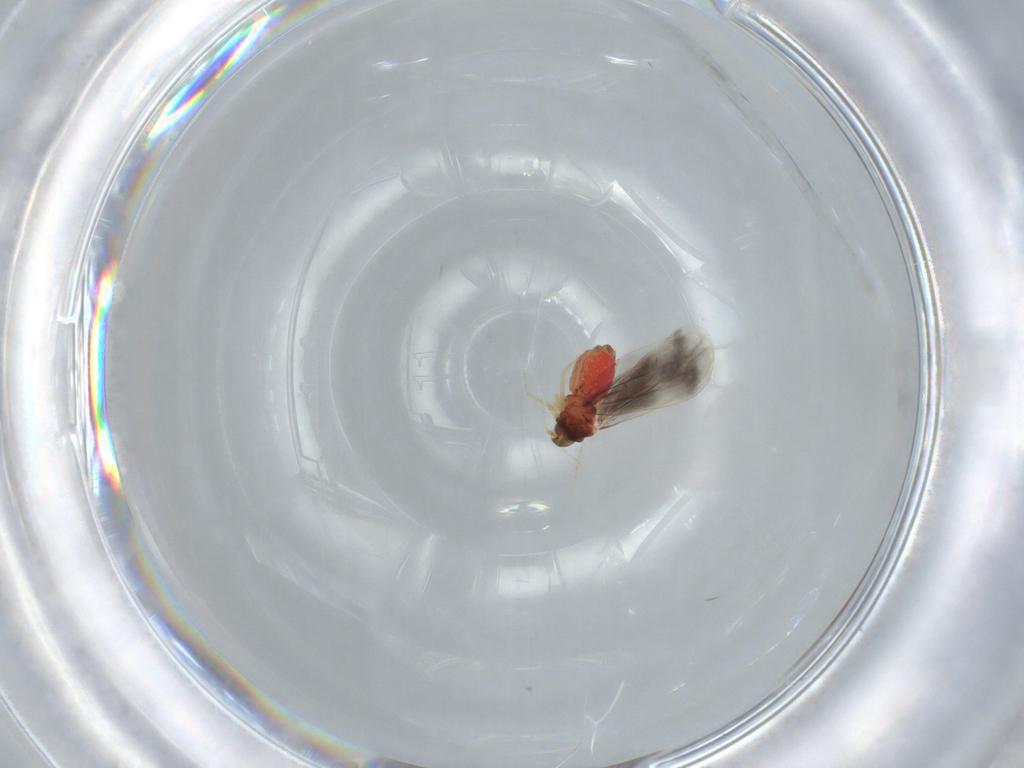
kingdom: Animalia
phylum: Arthropoda
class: Insecta
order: Hemiptera
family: Aleyrodidae
